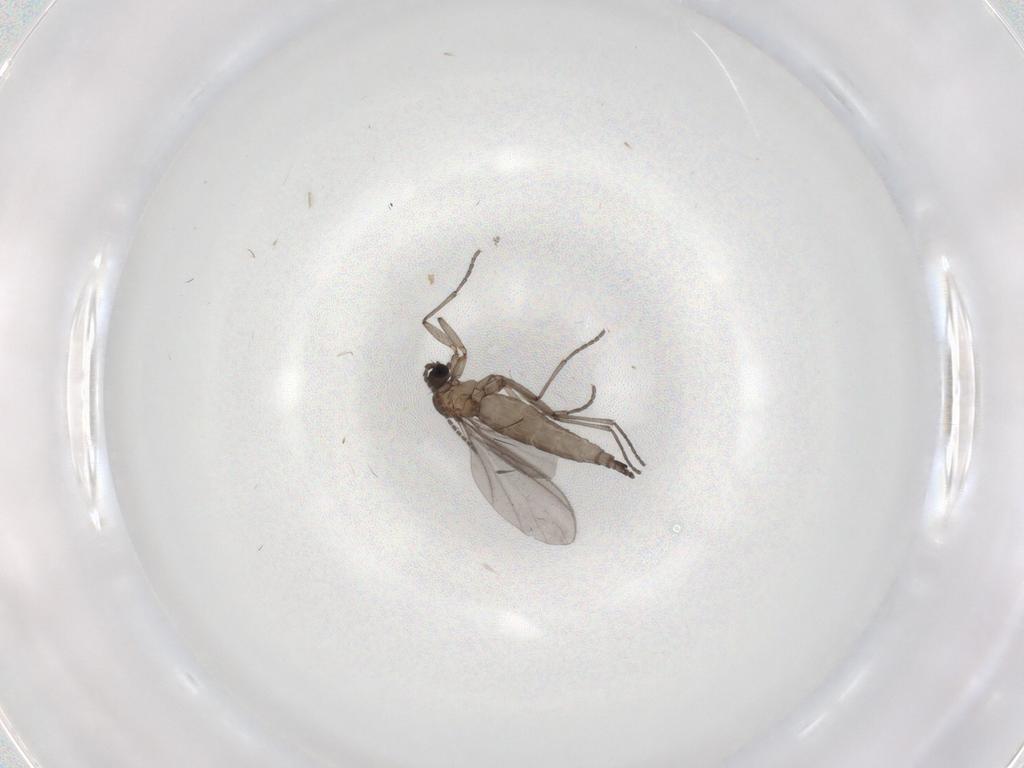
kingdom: Animalia
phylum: Arthropoda
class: Insecta
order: Diptera
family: Sciaridae
